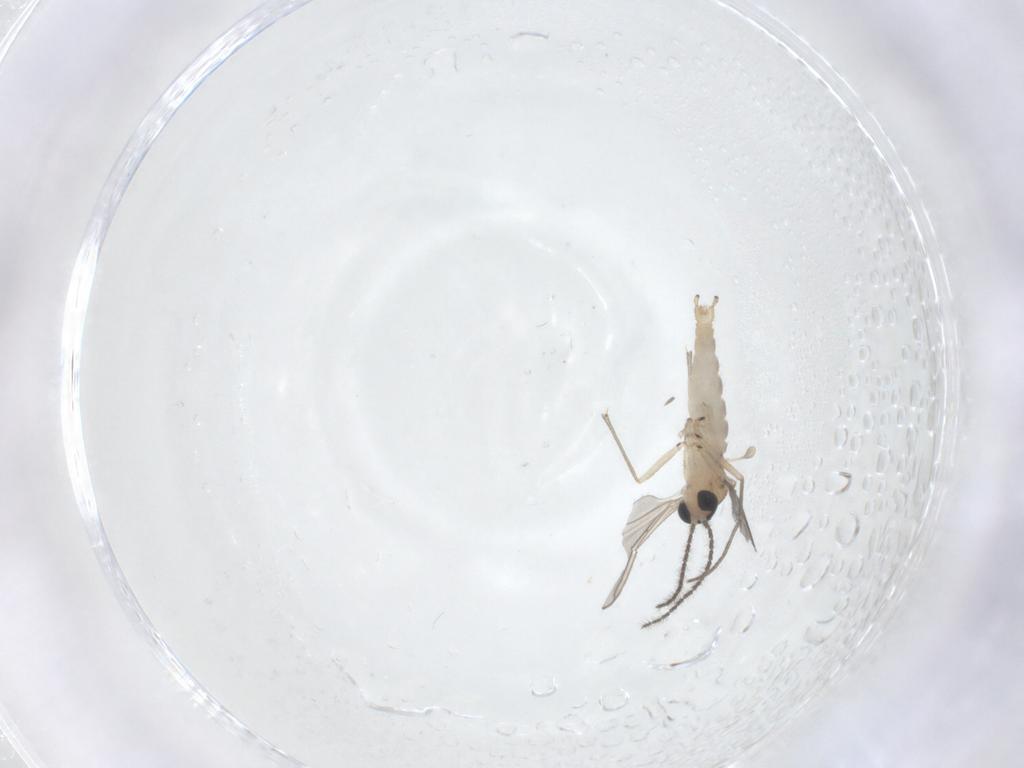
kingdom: Animalia
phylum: Arthropoda
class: Insecta
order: Diptera
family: Sciaridae
